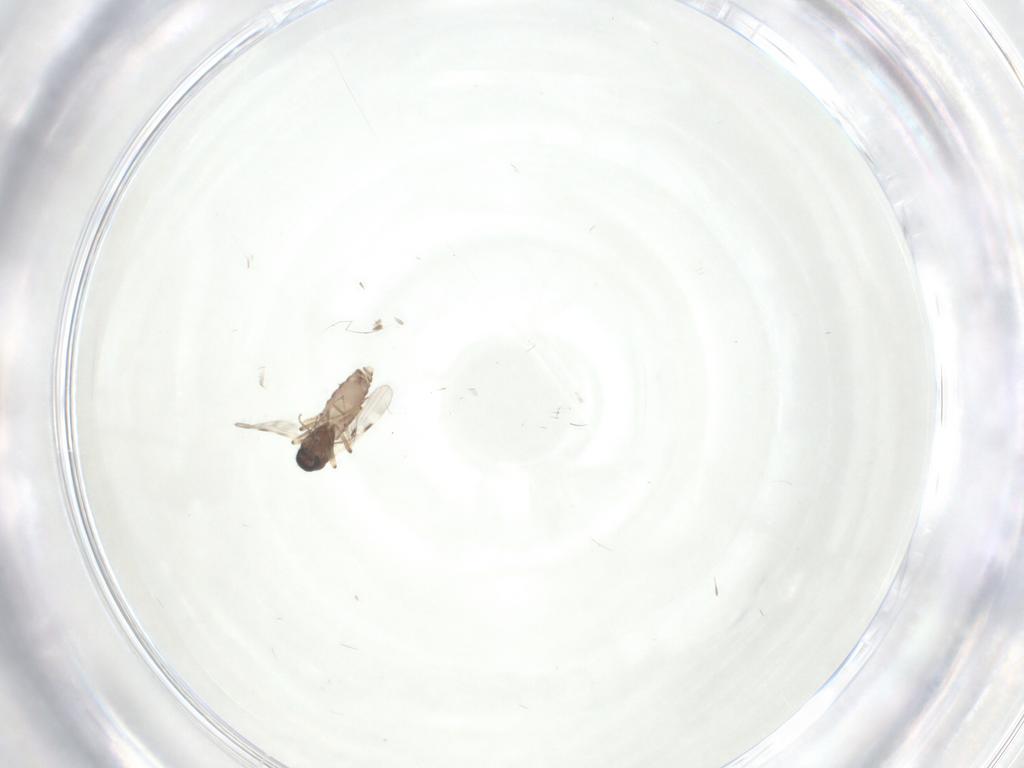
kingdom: Animalia
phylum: Arthropoda
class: Insecta
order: Diptera
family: Ceratopogonidae
